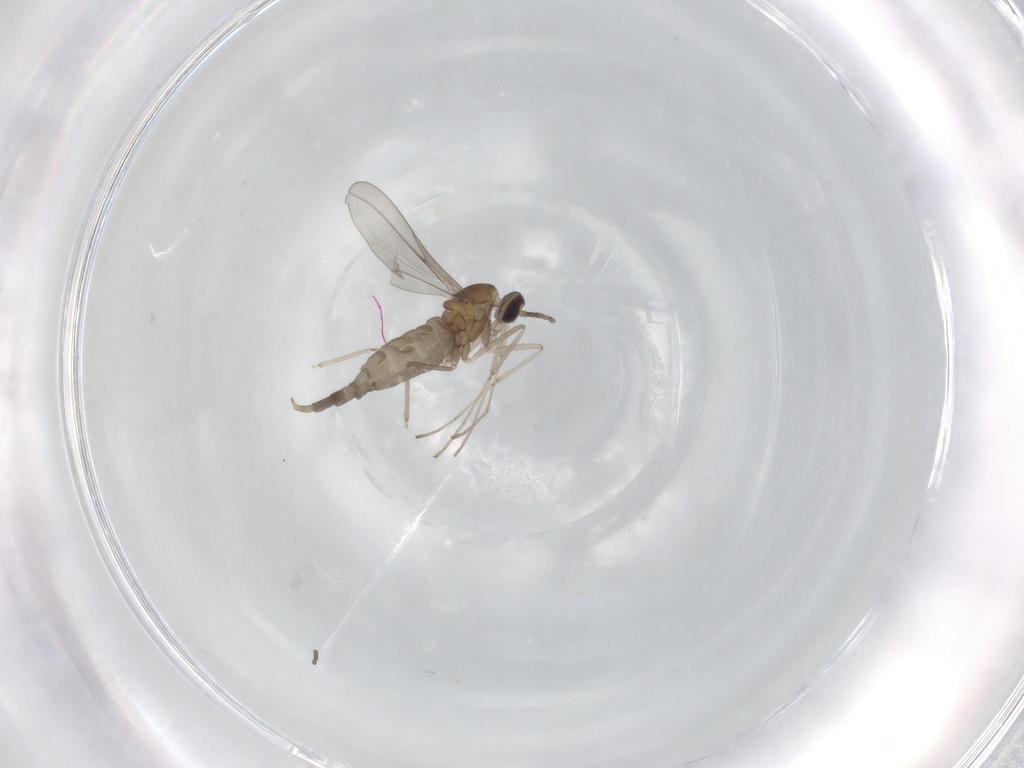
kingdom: Animalia
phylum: Arthropoda
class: Insecta
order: Diptera
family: Cecidomyiidae
